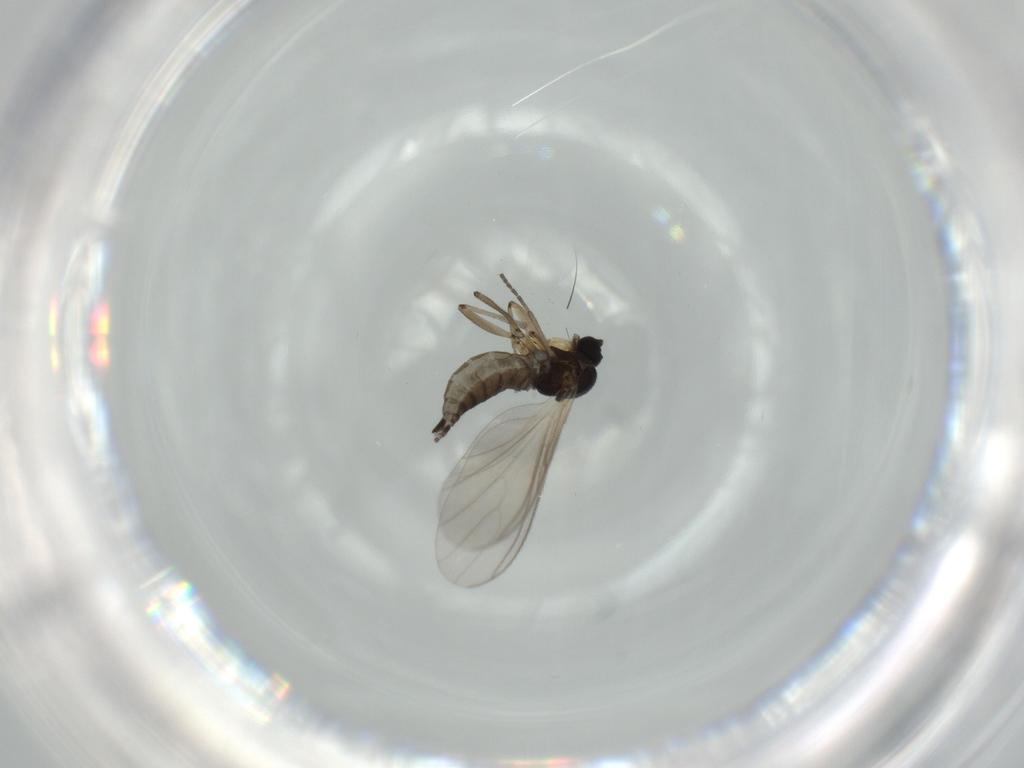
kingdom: Animalia
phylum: Arthropoda
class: Insecta
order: Diptera
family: Sciaridae
